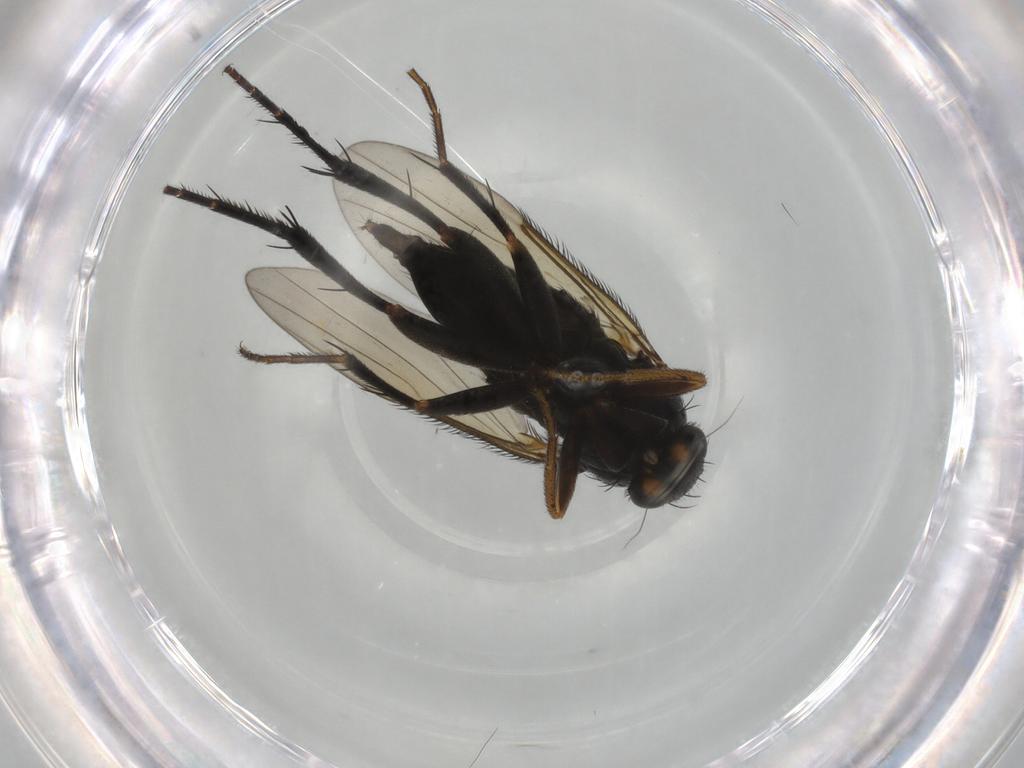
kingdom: Animalia
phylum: Arthropoda
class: Insecta
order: Diptera
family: Phoridae
